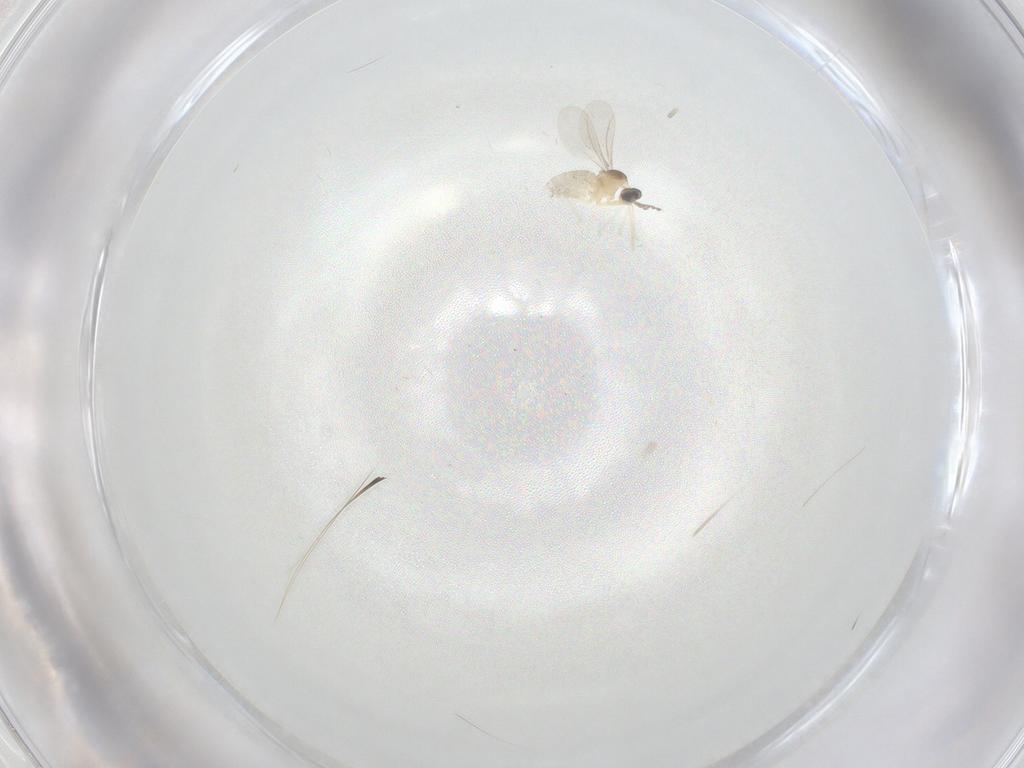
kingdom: Animalia
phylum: Arthropoda
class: Insecta
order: Diptera
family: Cecidomyiidae
